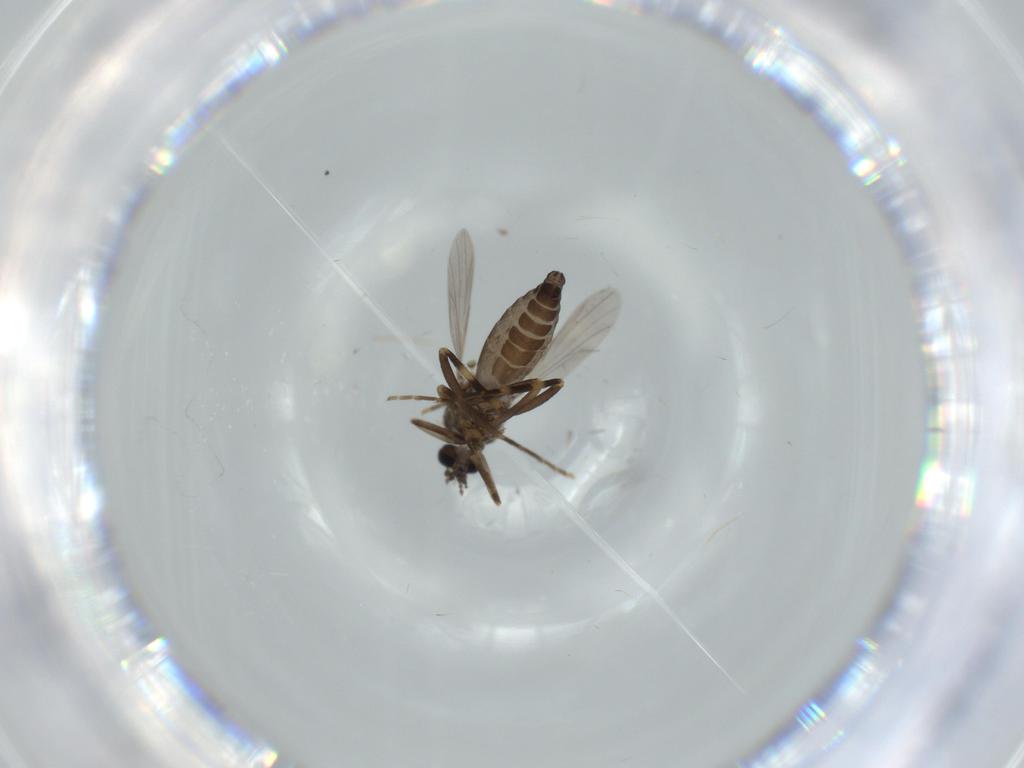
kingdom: Animalia
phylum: Arthropoda
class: Insecta
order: Diptera
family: Ceratopogonidae
